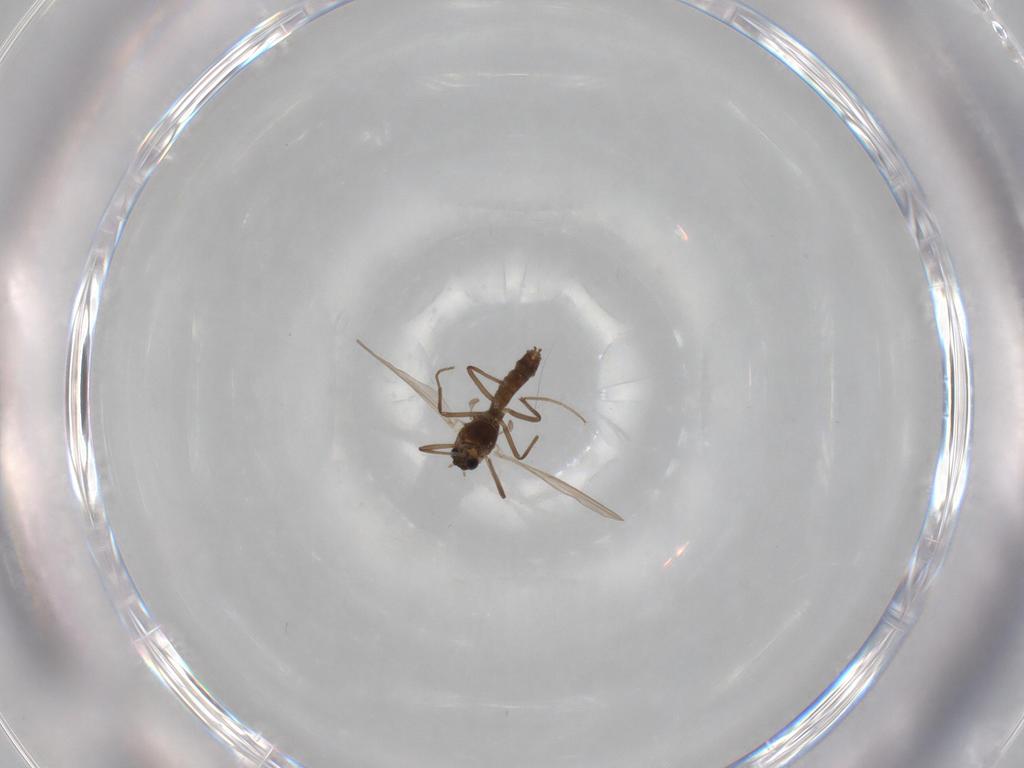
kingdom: Animalia
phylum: Arthropoda
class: Insecta
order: Diptera
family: Chironomidae
